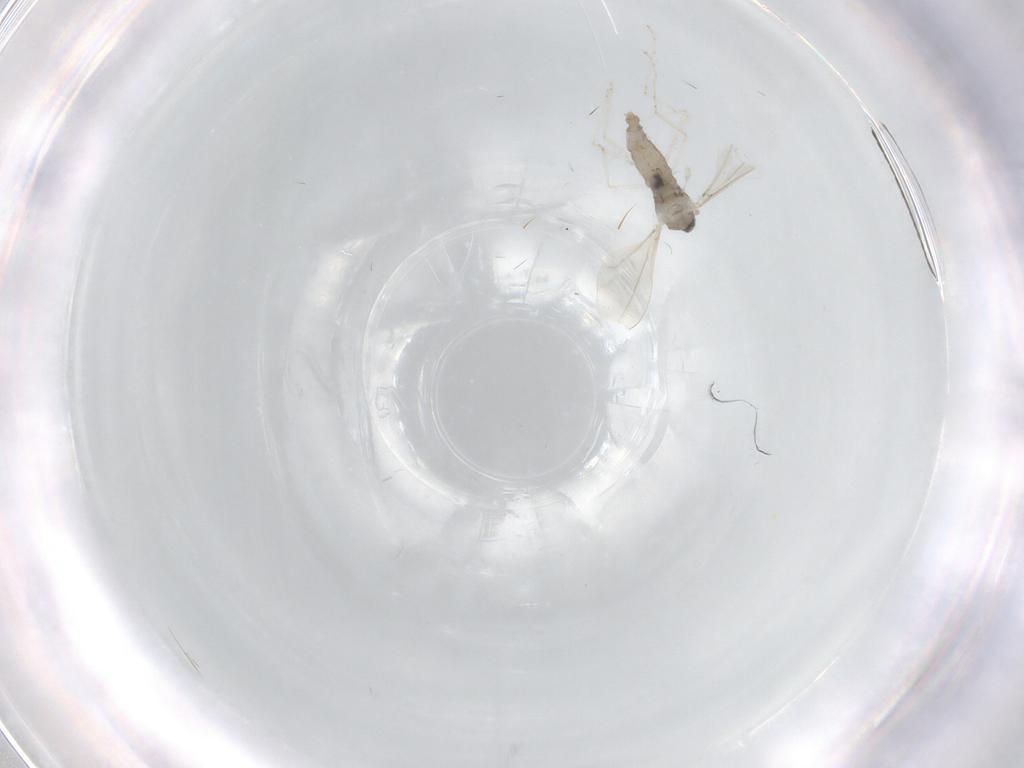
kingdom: Animalia
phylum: Arthropoda
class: Insecta
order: Diptera
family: Cecidomyiidae
